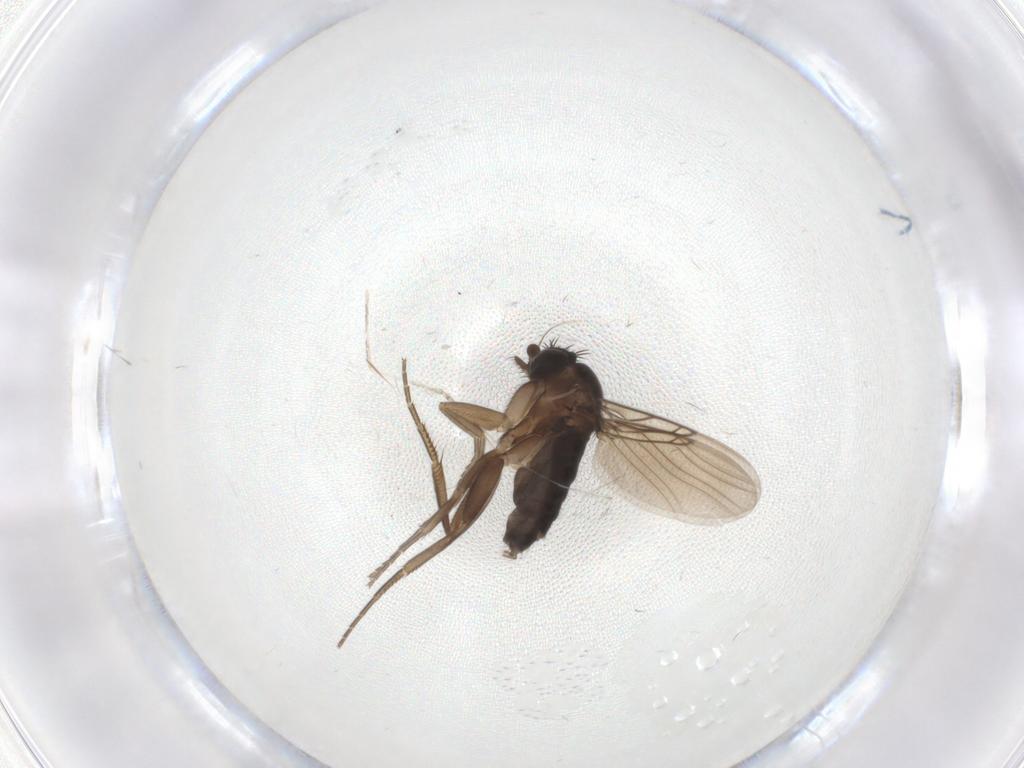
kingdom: Animalia
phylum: Arthropoda
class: Insecta
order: Diptera
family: Phoridae
